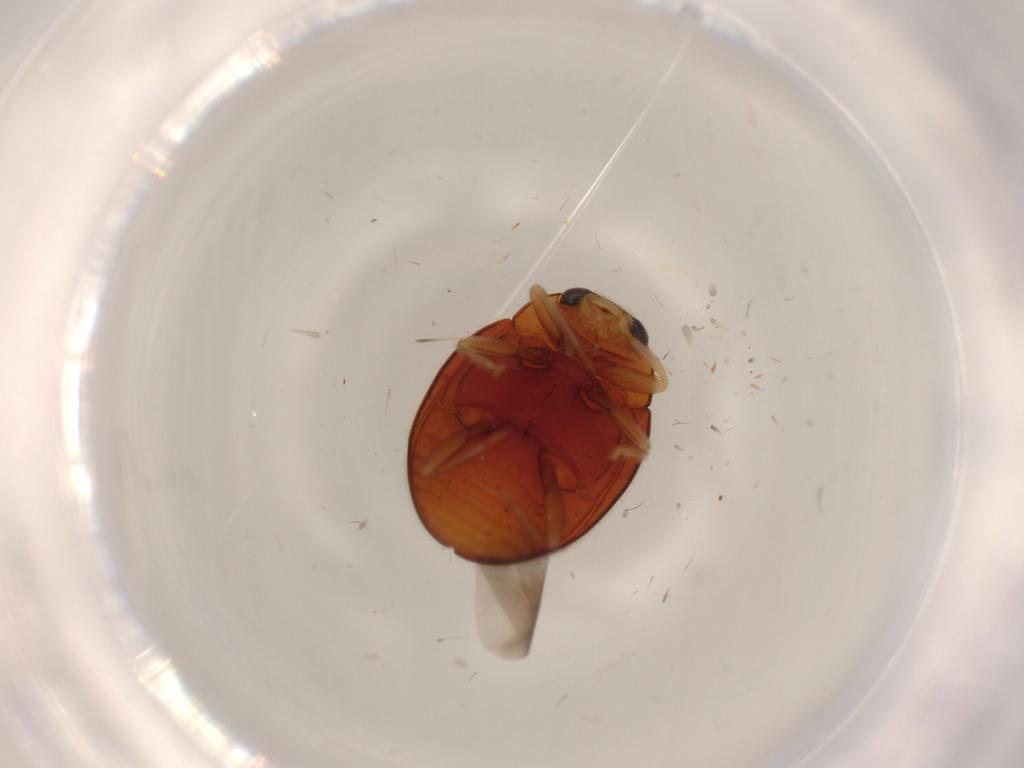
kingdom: Animalia
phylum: Arthropoda
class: Insecta
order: Coleoptera
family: Coccinellidae
